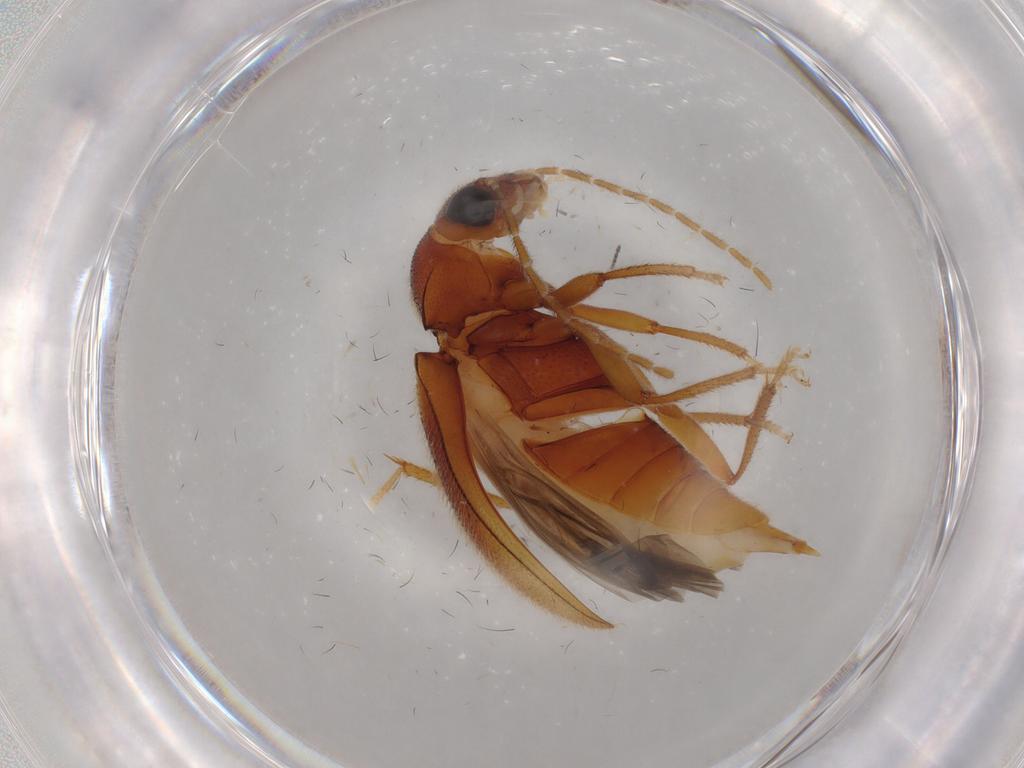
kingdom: Animalia
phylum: Arthropoda
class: Insecta
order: Coleoptera
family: Ptilodactylidae
